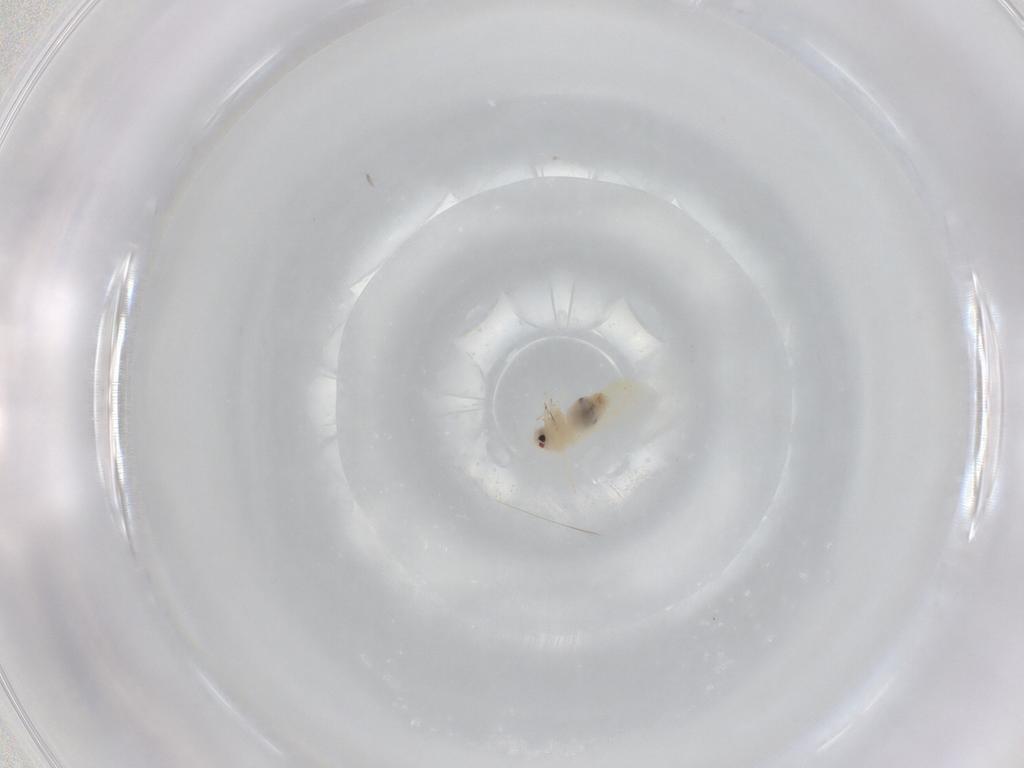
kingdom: Animalia
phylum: Arthropoda
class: Insecta
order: Hemiptera
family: Aleyrodidae
